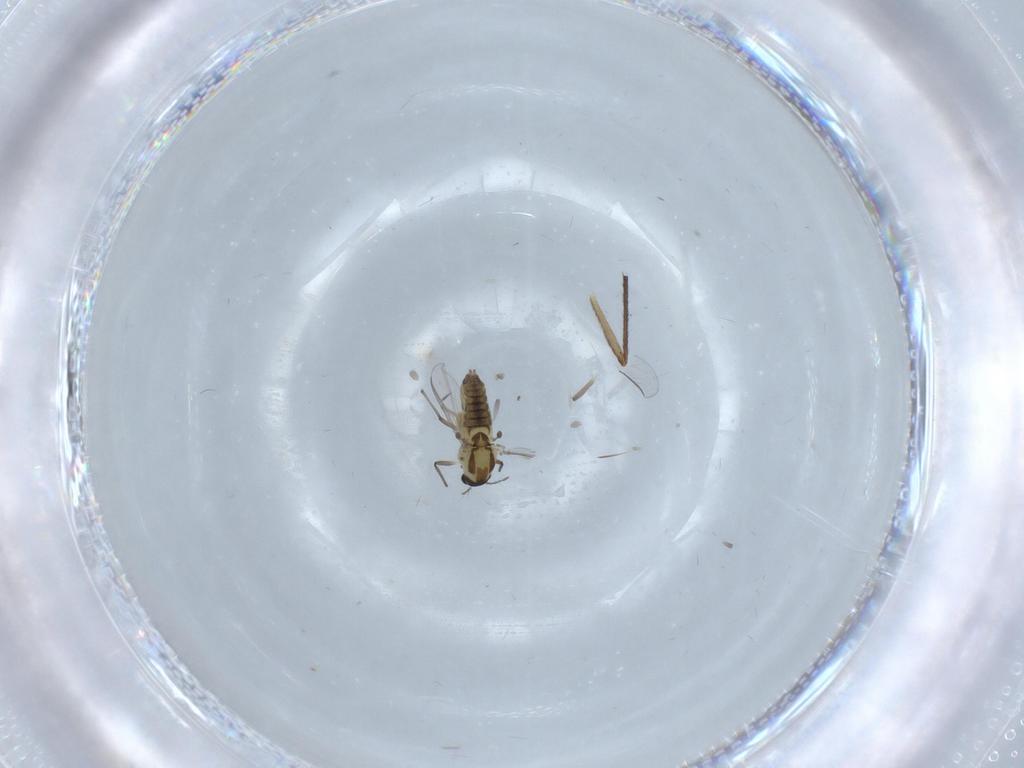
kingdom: Animalia
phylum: Arthropoda
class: Insecta
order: Diptera
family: Chironomidae
